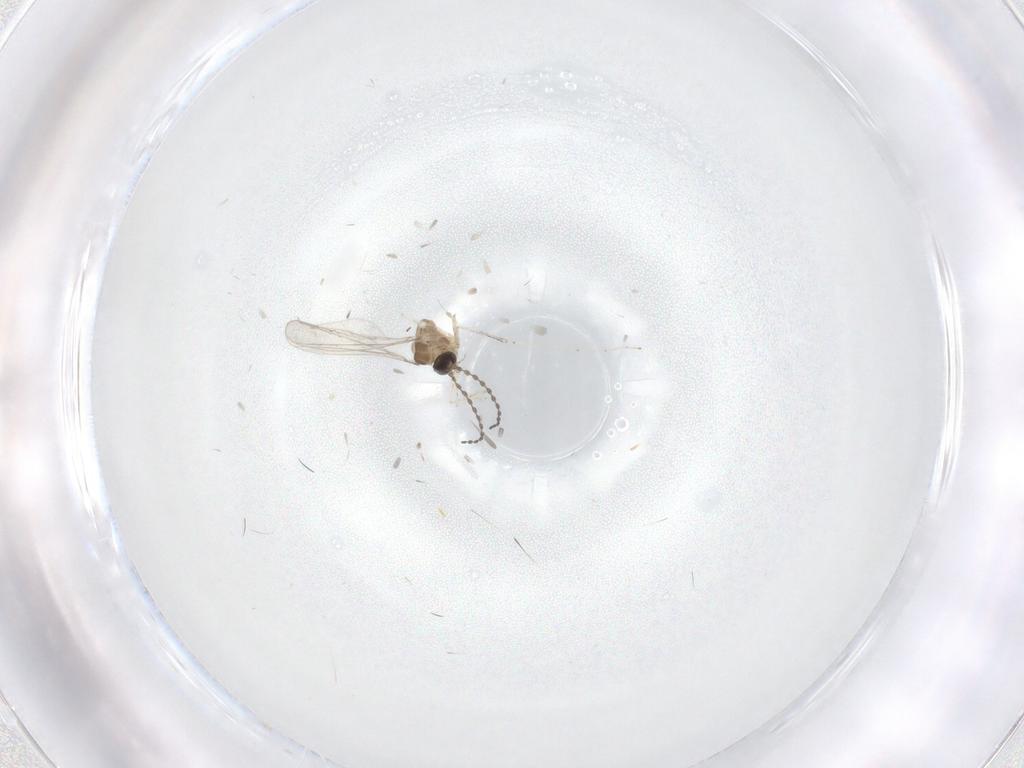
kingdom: Animalia
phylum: Arthropoda
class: Insecta
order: Diptera
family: Cecidomyiidae
